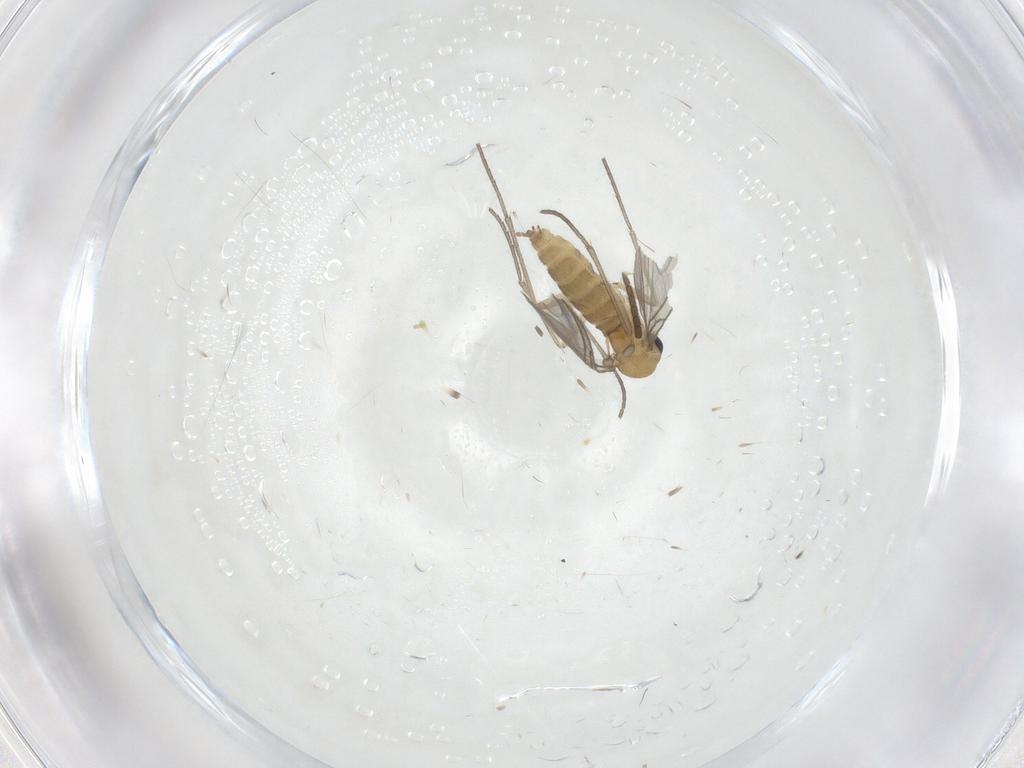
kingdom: Animalia
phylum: Arthropoda
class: Insecta
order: Diptera
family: Sciaridae
